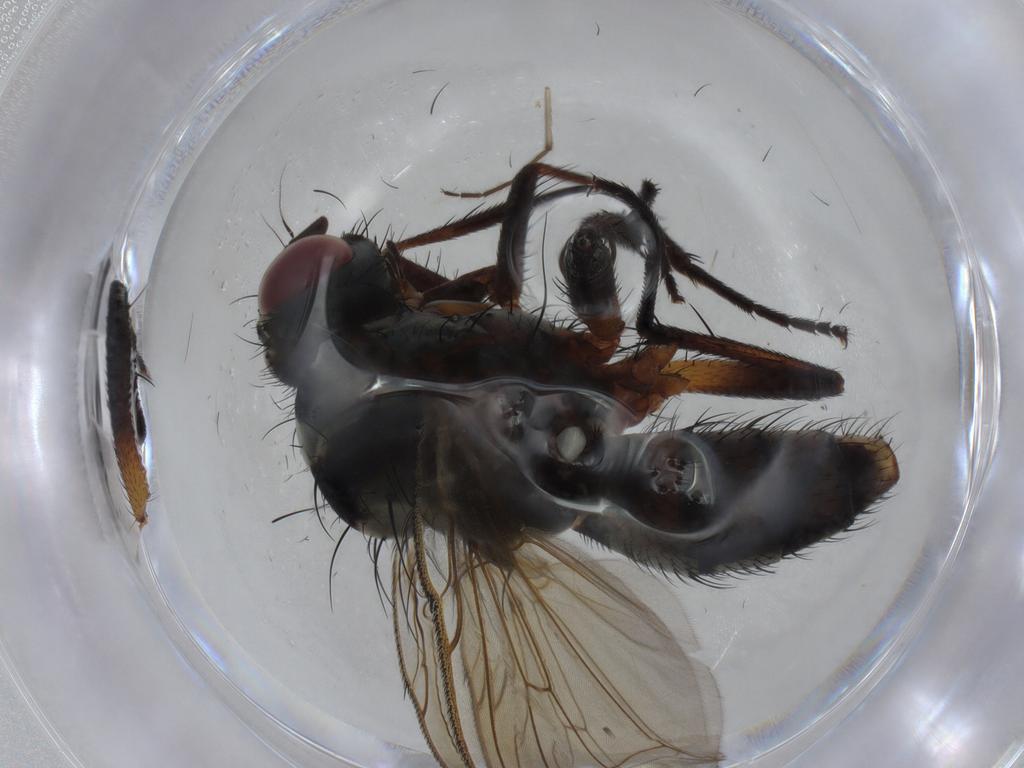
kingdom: Animalia
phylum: Arthropoda
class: Insecta
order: Diptera
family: Anthomyiidae
